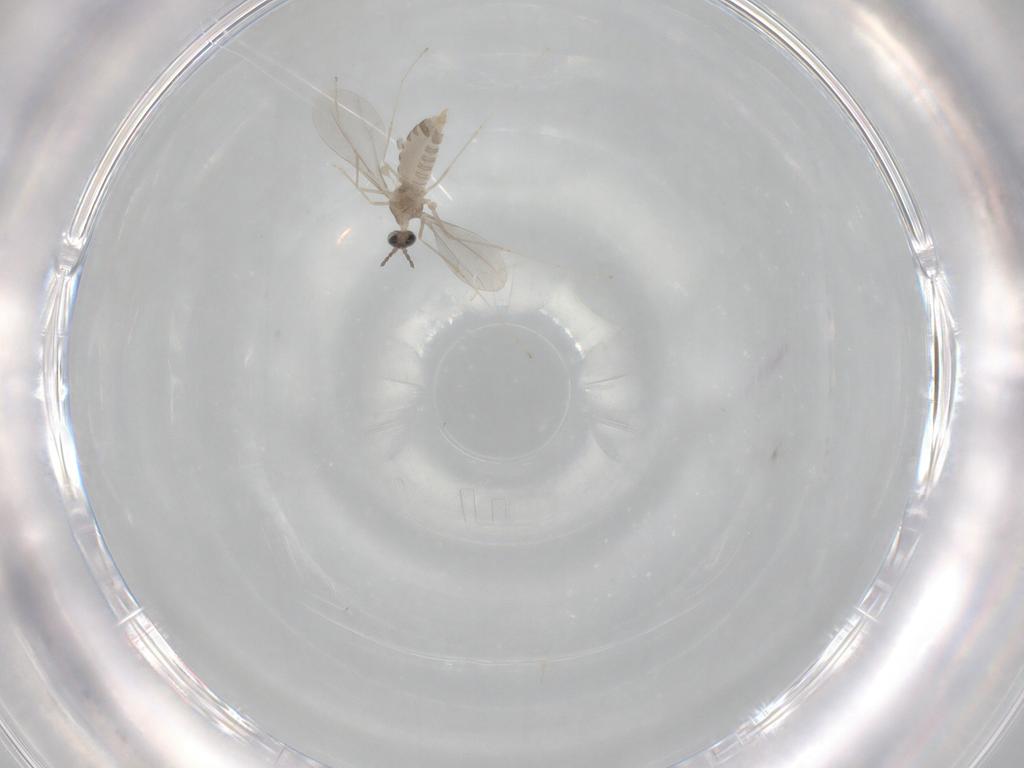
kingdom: Animalia
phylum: Arthropoda
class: Insecta
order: Diptera
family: Cecidomyiidae
